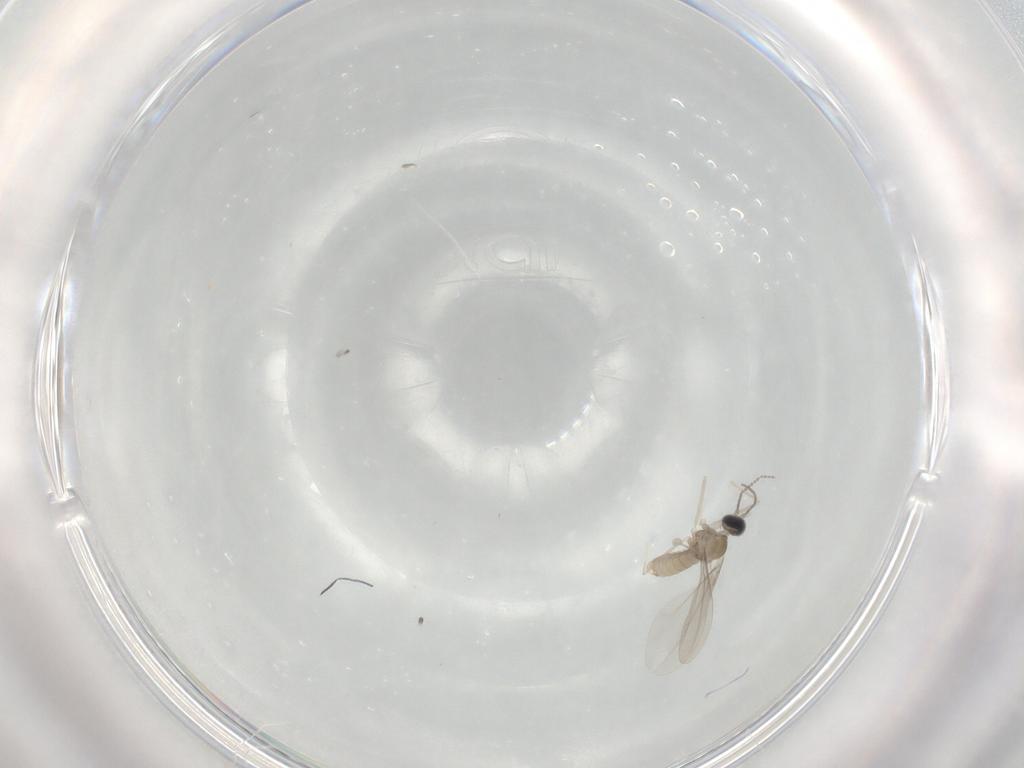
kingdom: Animalia
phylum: Arthropoda
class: Insecta
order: Diptera
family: Cecidomyiidae
